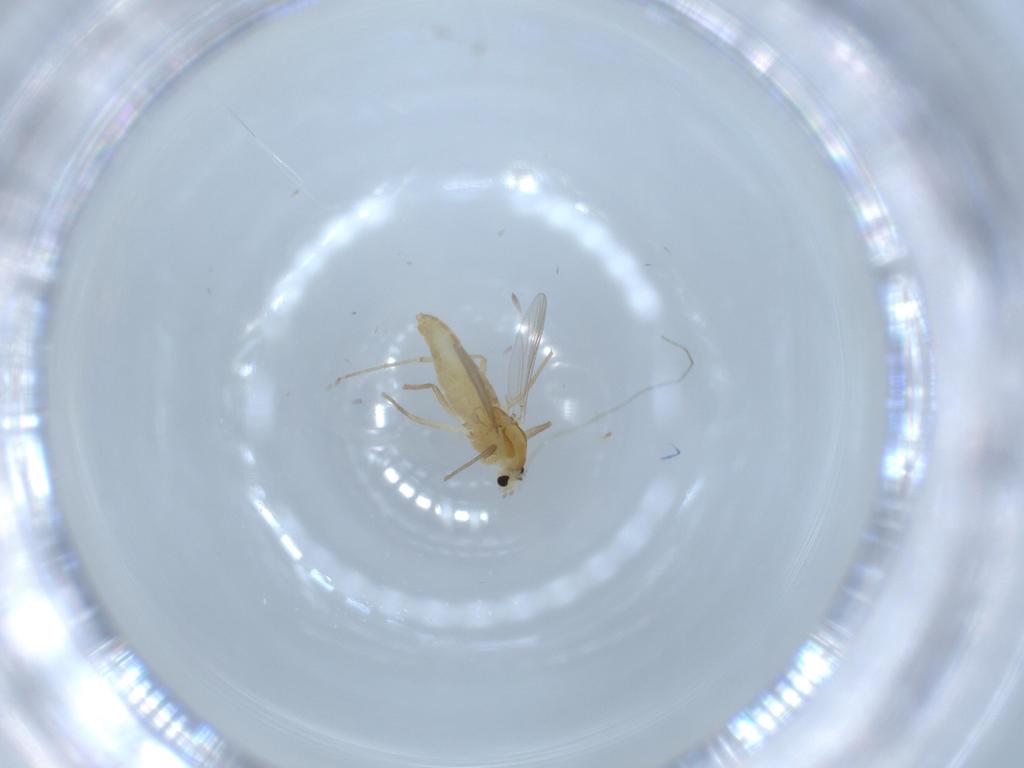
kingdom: Animalia
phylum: Arthropoda
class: Insecta
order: Diptera
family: Chironomidae
